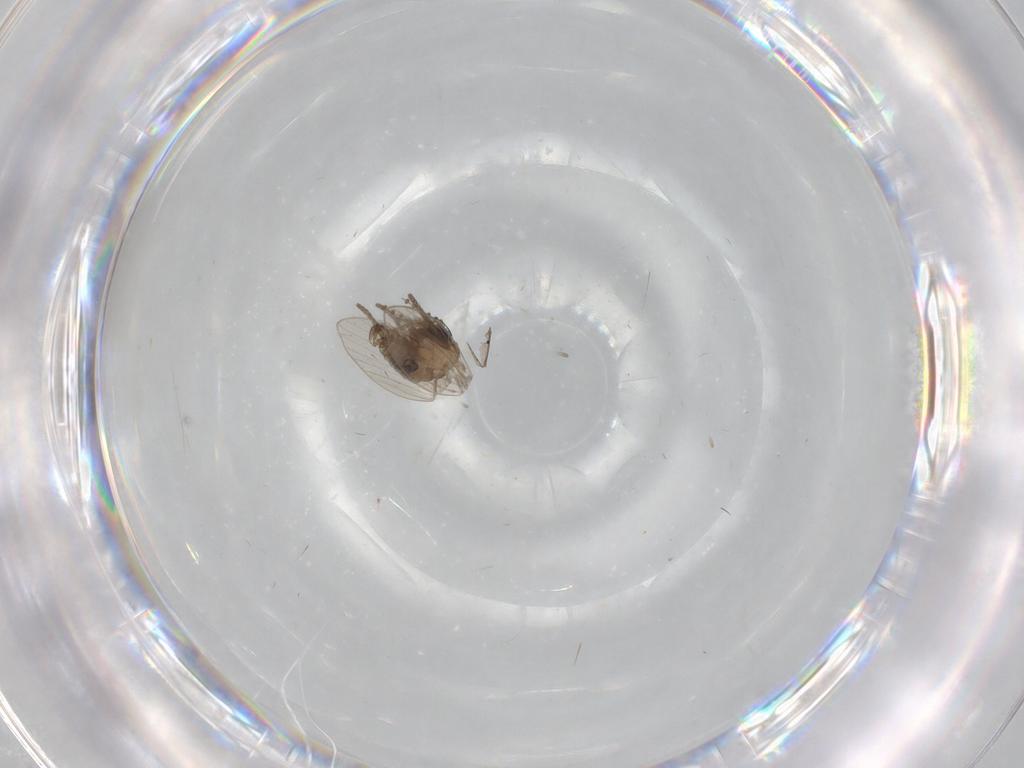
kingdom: Animalia
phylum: Arthropoda
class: Insecta
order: Diptera
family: Psychodidae
